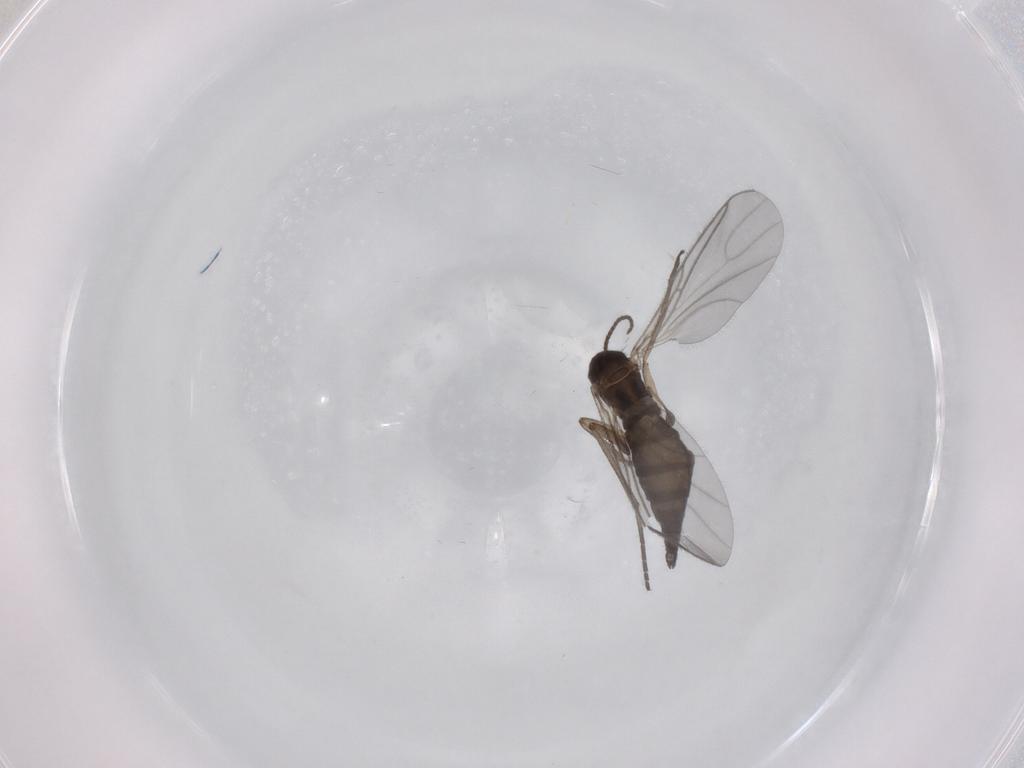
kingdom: Animalia
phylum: Arthropoda
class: Insecta
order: Diptera
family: Sciaridae
